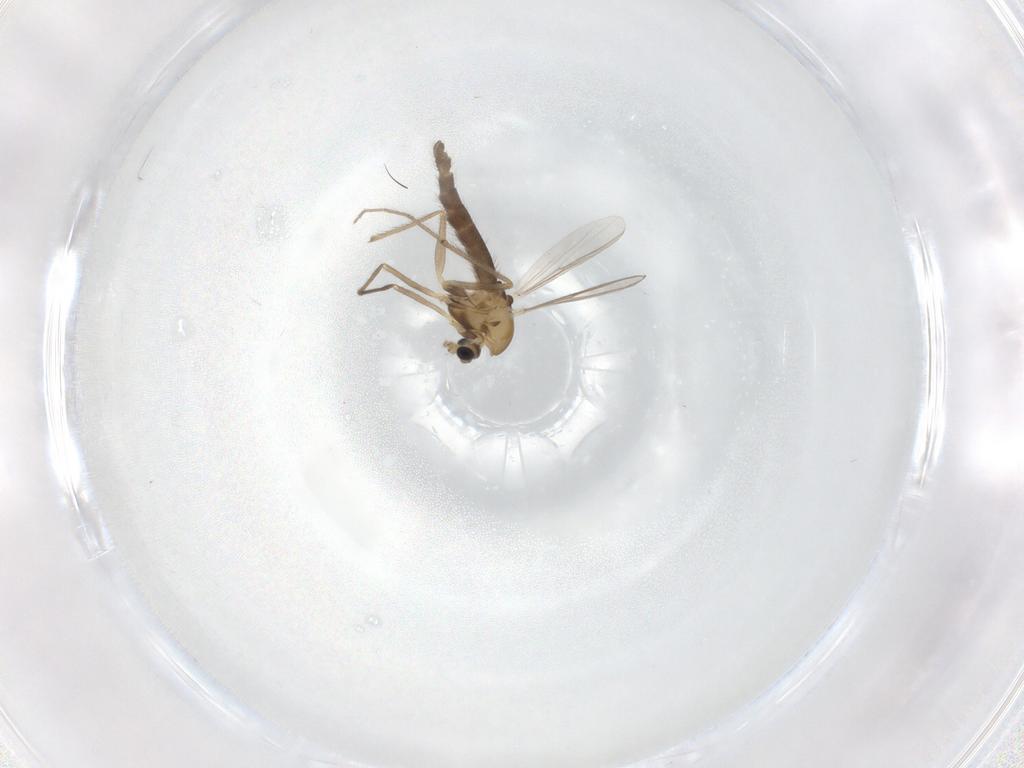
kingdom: Animalia
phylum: Arthropoda
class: Insecta
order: Diptera
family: Chironomidae
